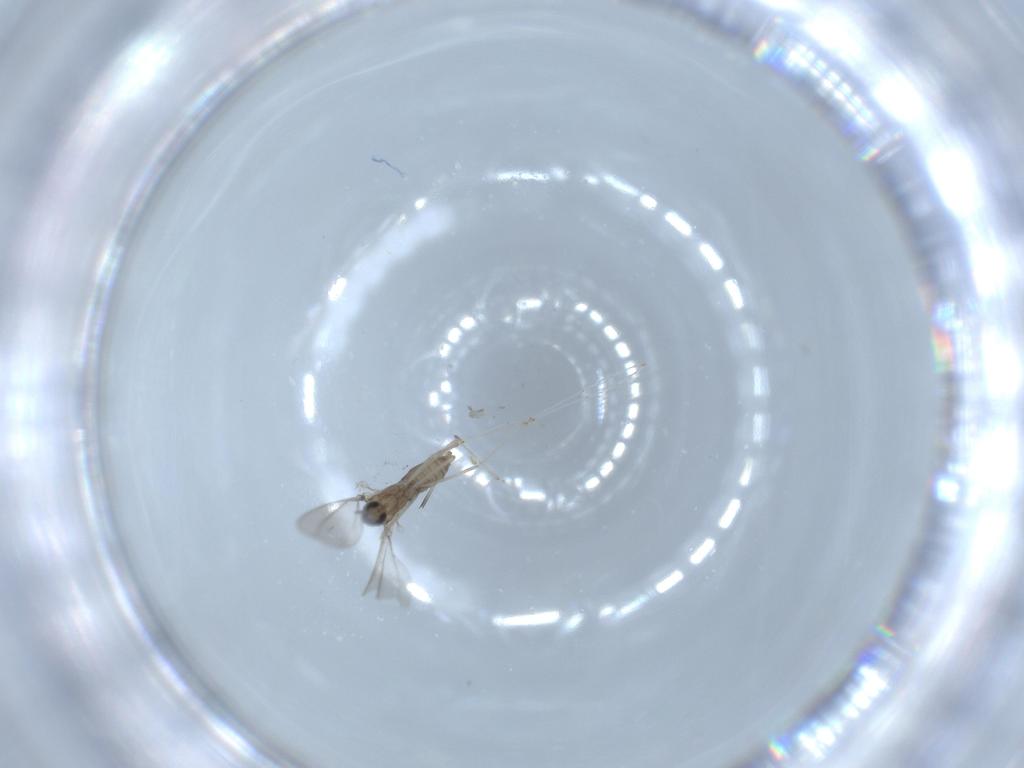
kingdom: Animalia
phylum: Arthropoda
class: Insecta
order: Diptera
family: Cecidomyiidae
